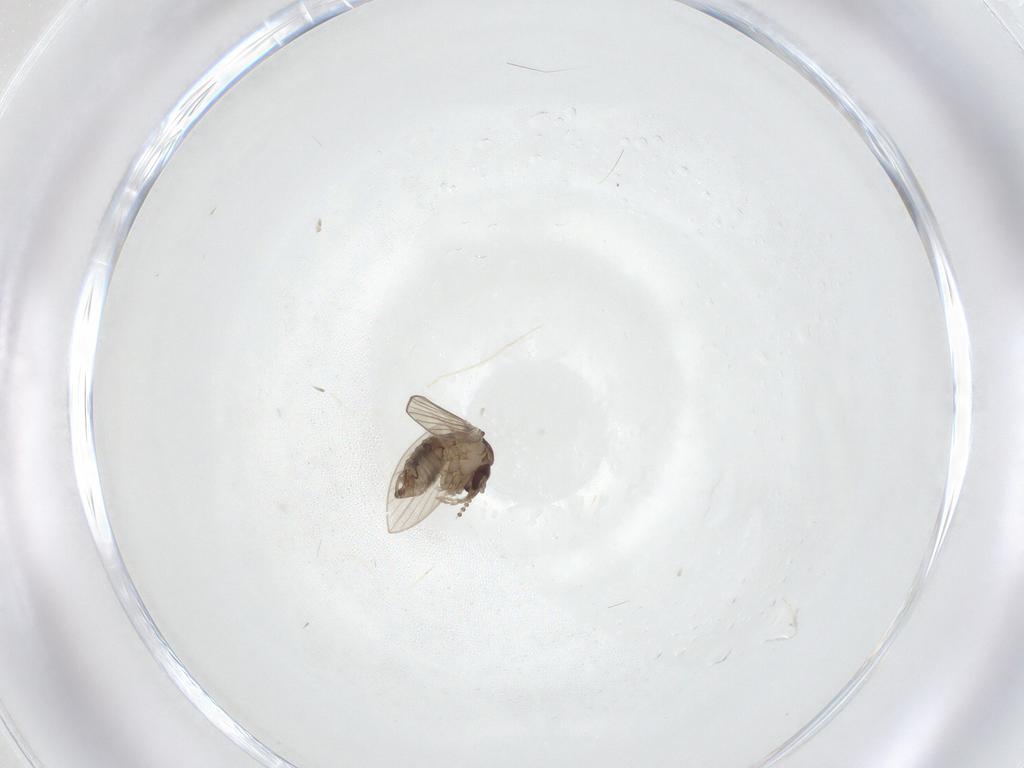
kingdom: Animalia
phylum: Arthropoda
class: Insecta
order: Diptera
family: Psychodidae
